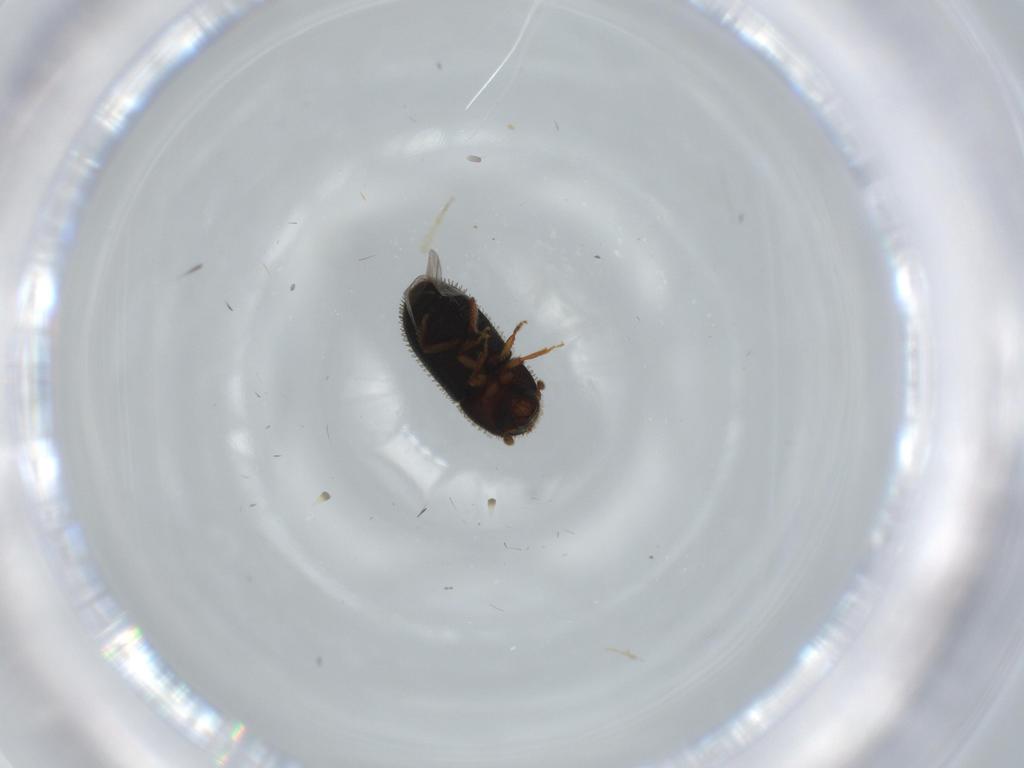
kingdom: Animalia
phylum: Arthropoda
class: Insecta
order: Coleoptera
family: Curculionidae
